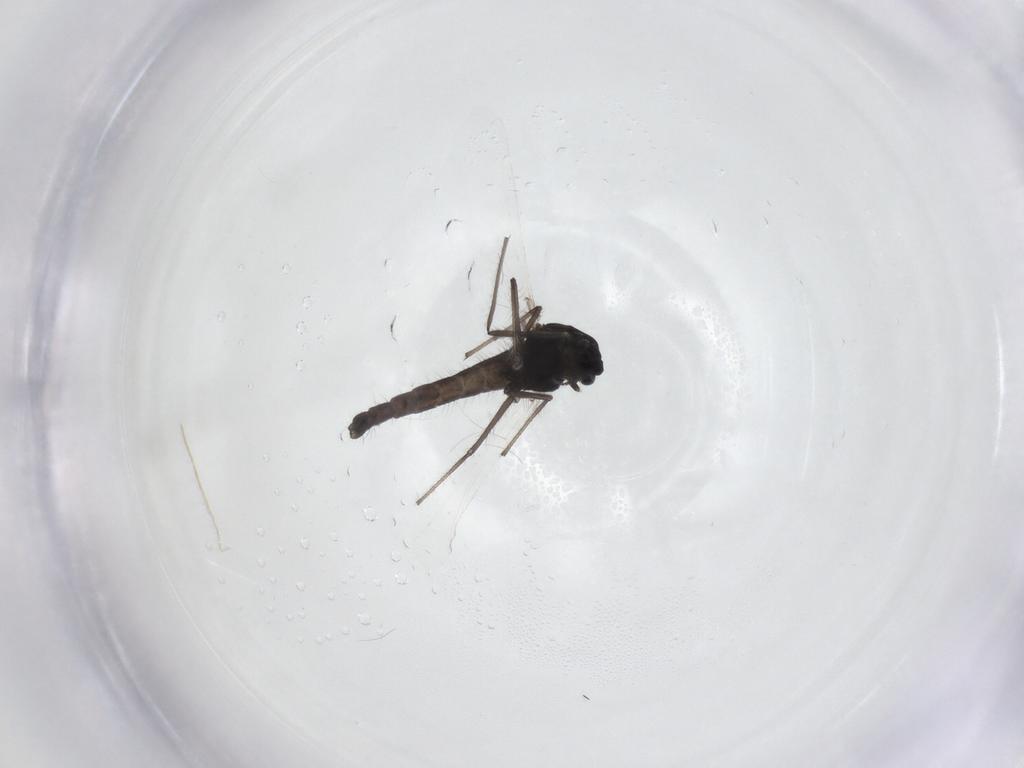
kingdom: Animalia
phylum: Arthropoda
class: Insecta
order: Diptera
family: Chironomidae
